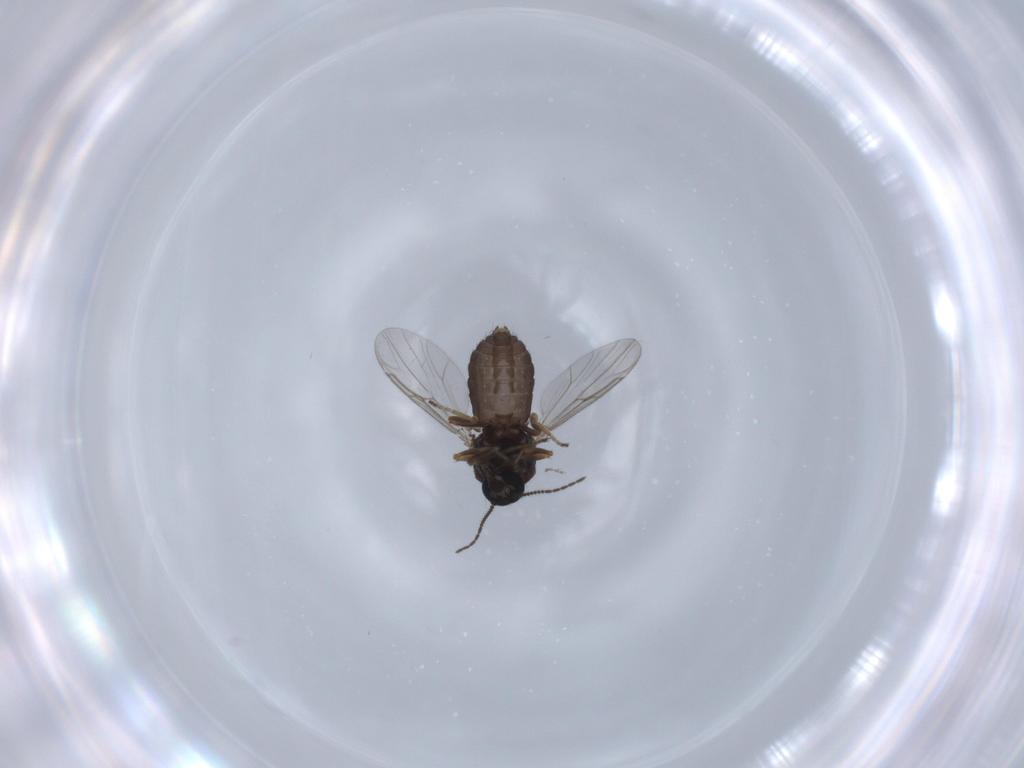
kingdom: Animalia
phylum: Arthropoda
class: Insecta
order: Diptera
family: Ceratopogonidae
